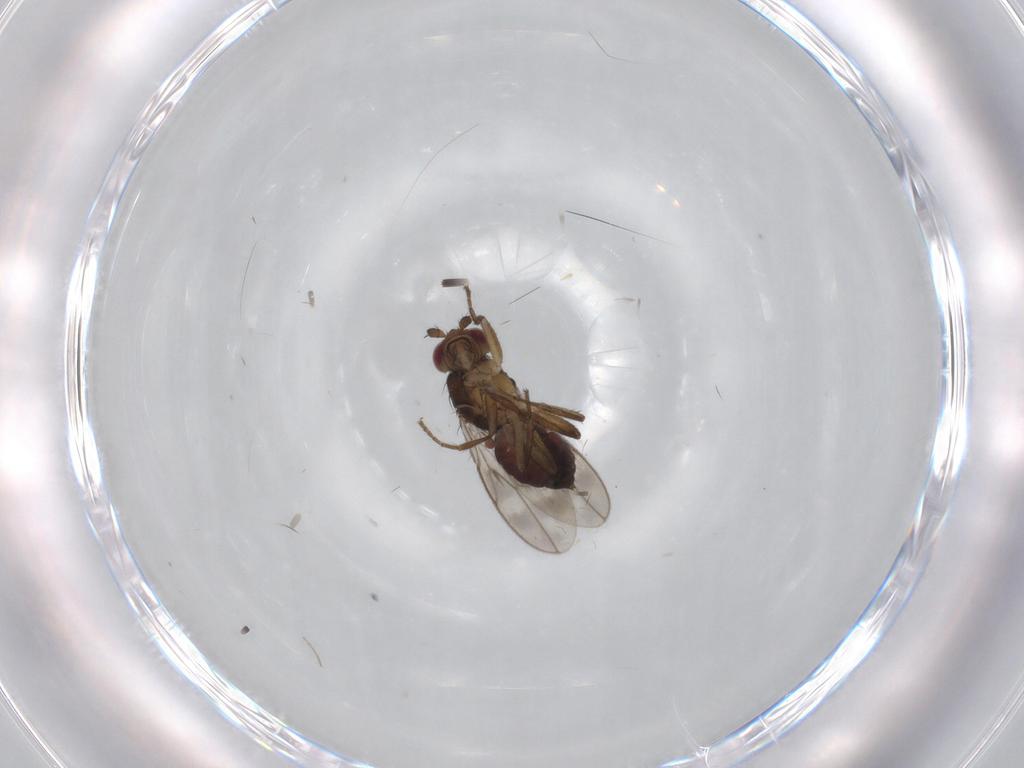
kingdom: Animalia
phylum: Arthropoda
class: Insecta
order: Diptera
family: Sphaeroceridae
